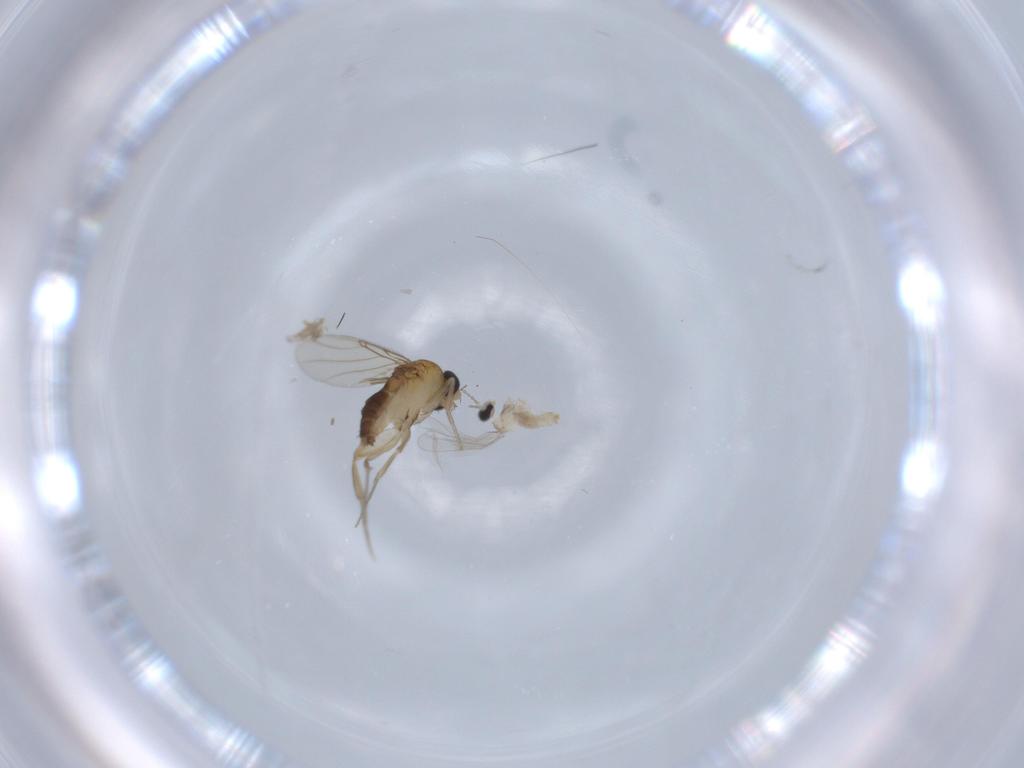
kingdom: Animalia
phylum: Arthropoda
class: Insecta
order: Diptera
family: Phoridae
